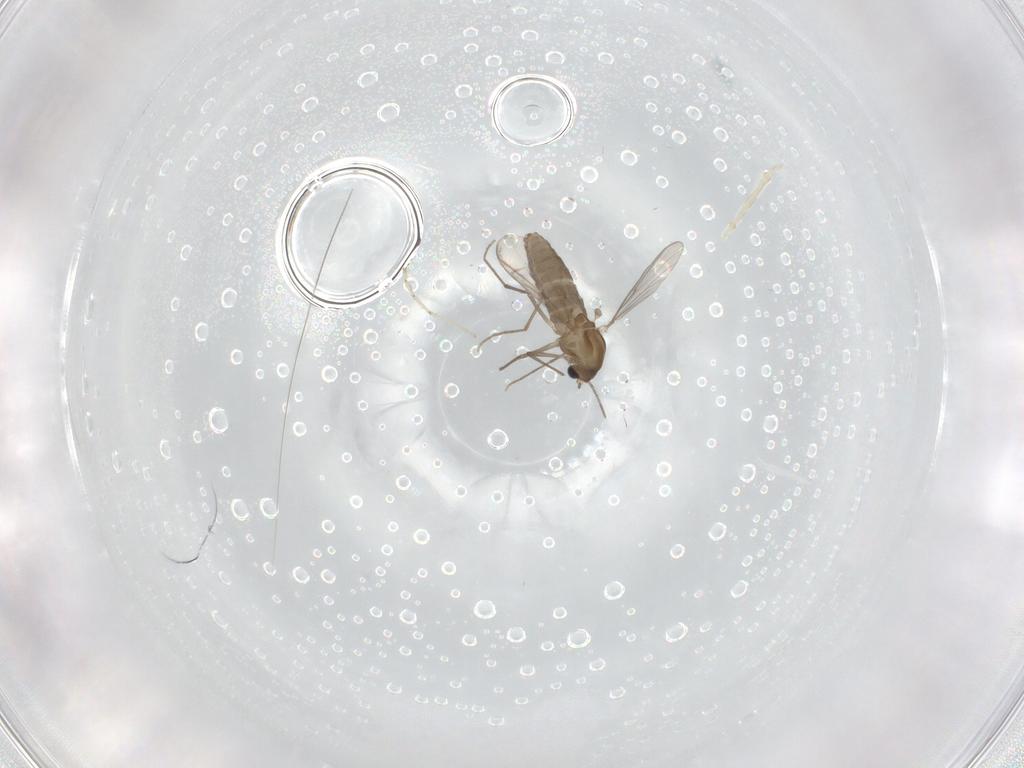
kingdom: Animalia
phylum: Arthropoda
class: Insecta
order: Diptera
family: Chironomidae
